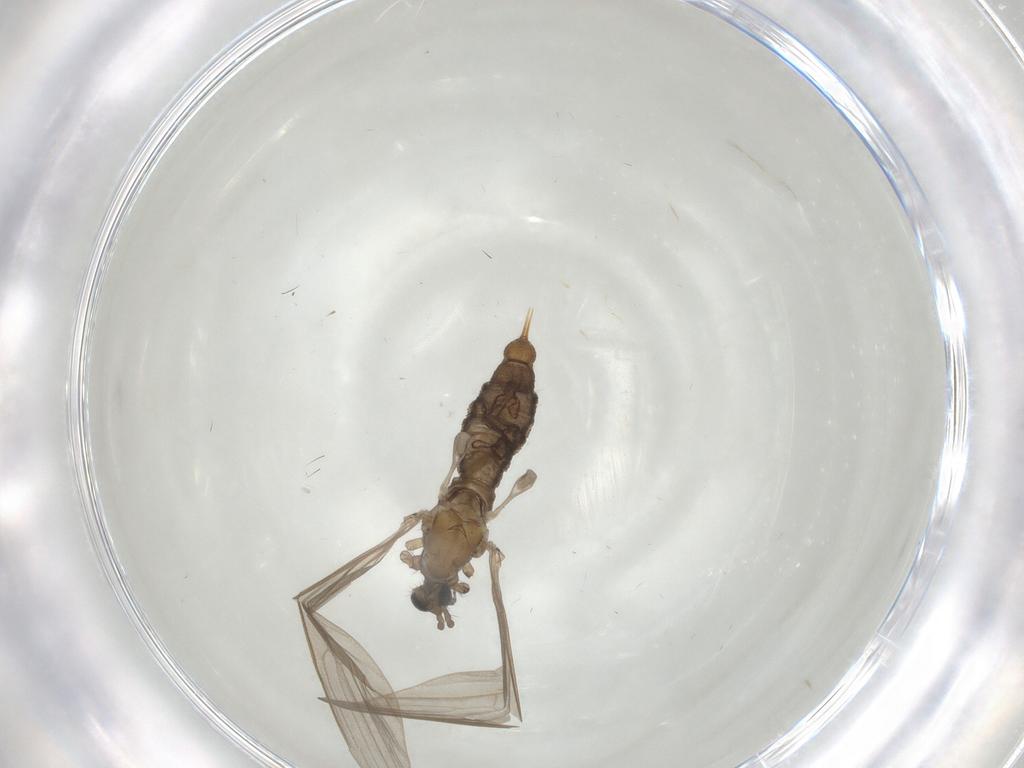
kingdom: Animalia
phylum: Arthropoda
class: Insecta
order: Diptera
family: Limoniidae
